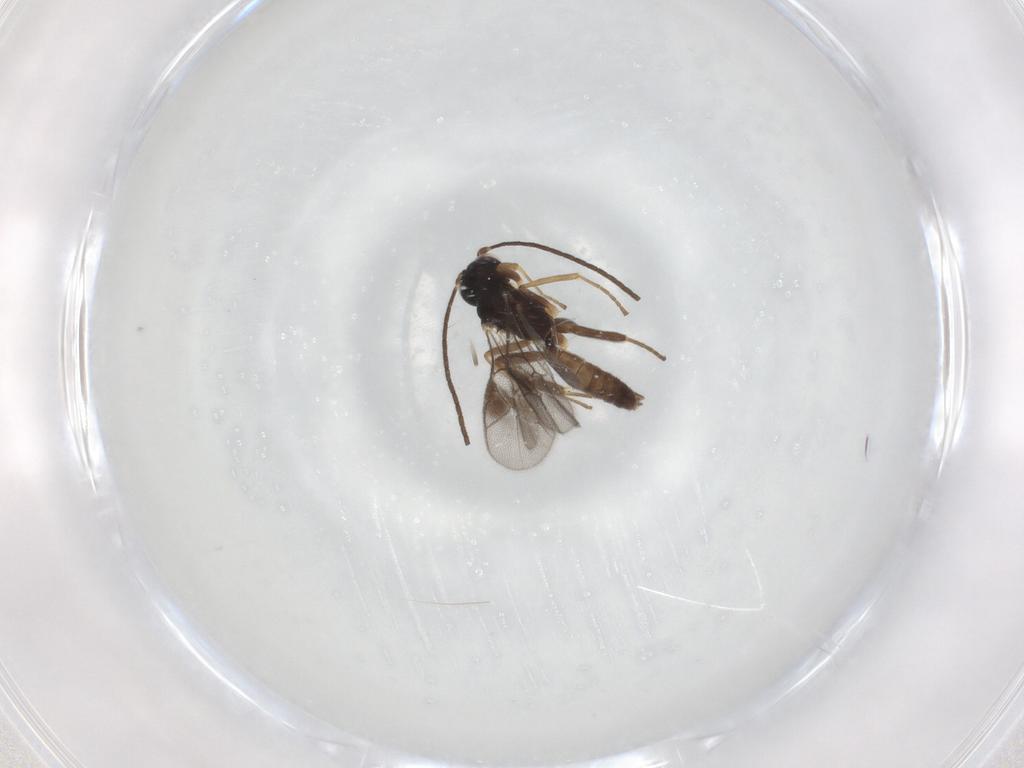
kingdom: Animalia
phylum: Arthropoda
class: Insecta
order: Hymenoptera
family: Ichneumonidae
